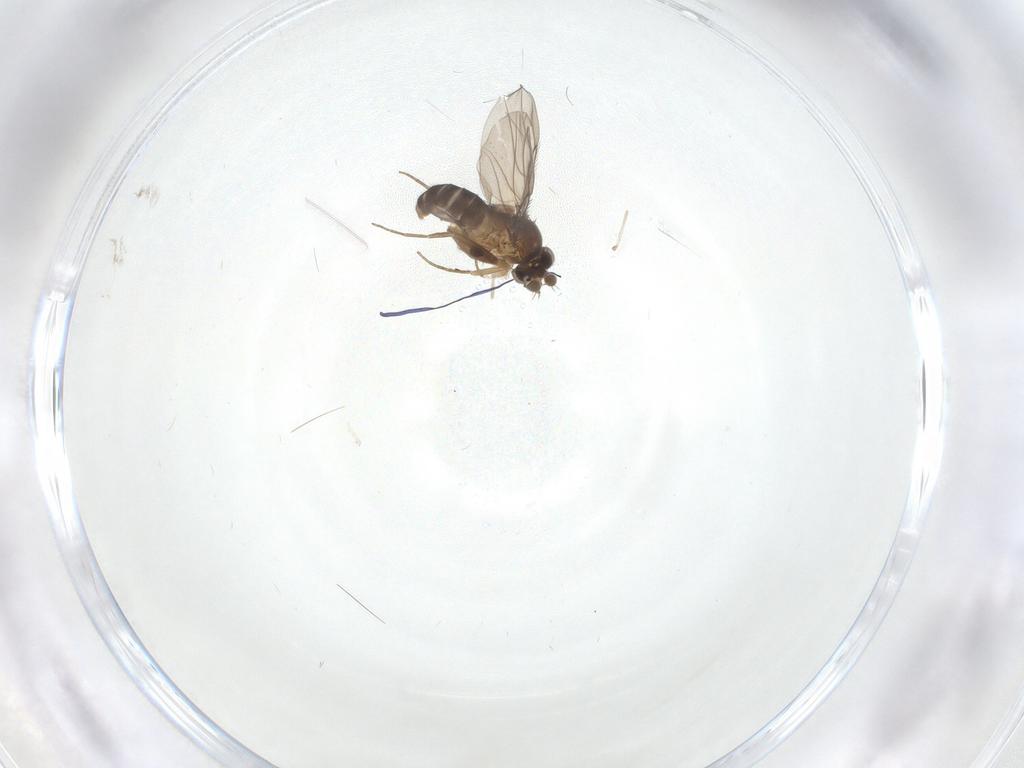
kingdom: Animalia
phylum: Arthropoda
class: Insecta
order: Diptera
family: Phoridae
